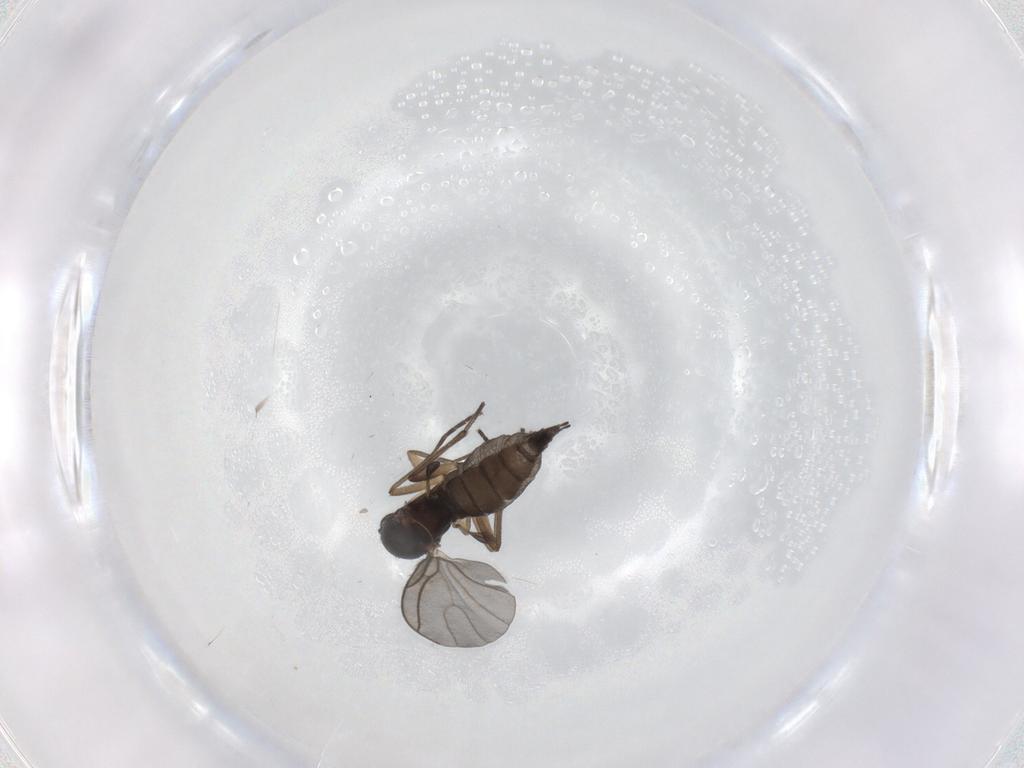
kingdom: Animalia
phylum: Arthropoda
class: Insecta
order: Diptera
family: Sciaridae
